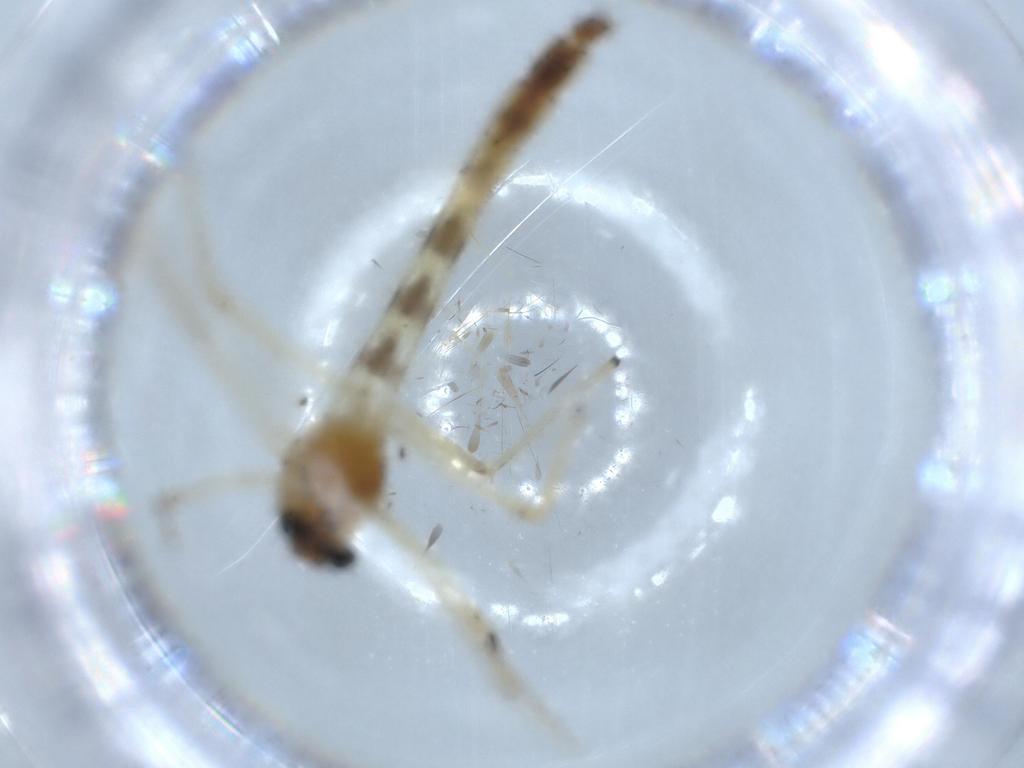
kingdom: Animalia
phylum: Arthropoda
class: Insecta
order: Diptera
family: Chironomidae
